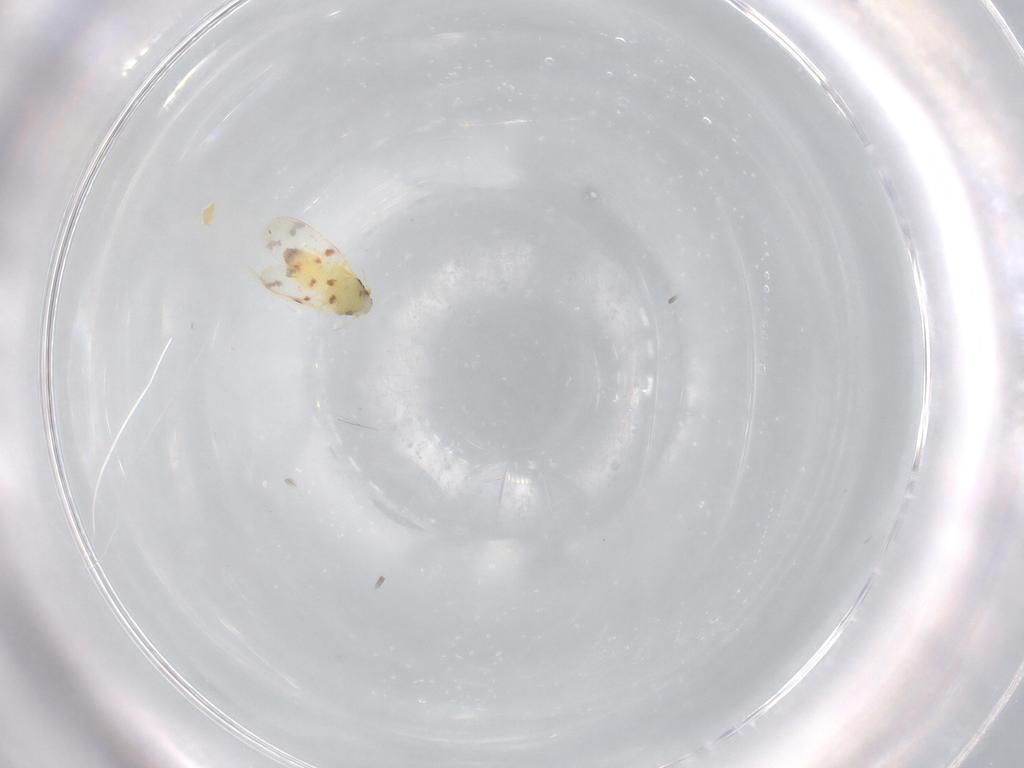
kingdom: Animalia
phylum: Arthropoda
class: Insecta
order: Hemiptera
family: Aleyrodidae
